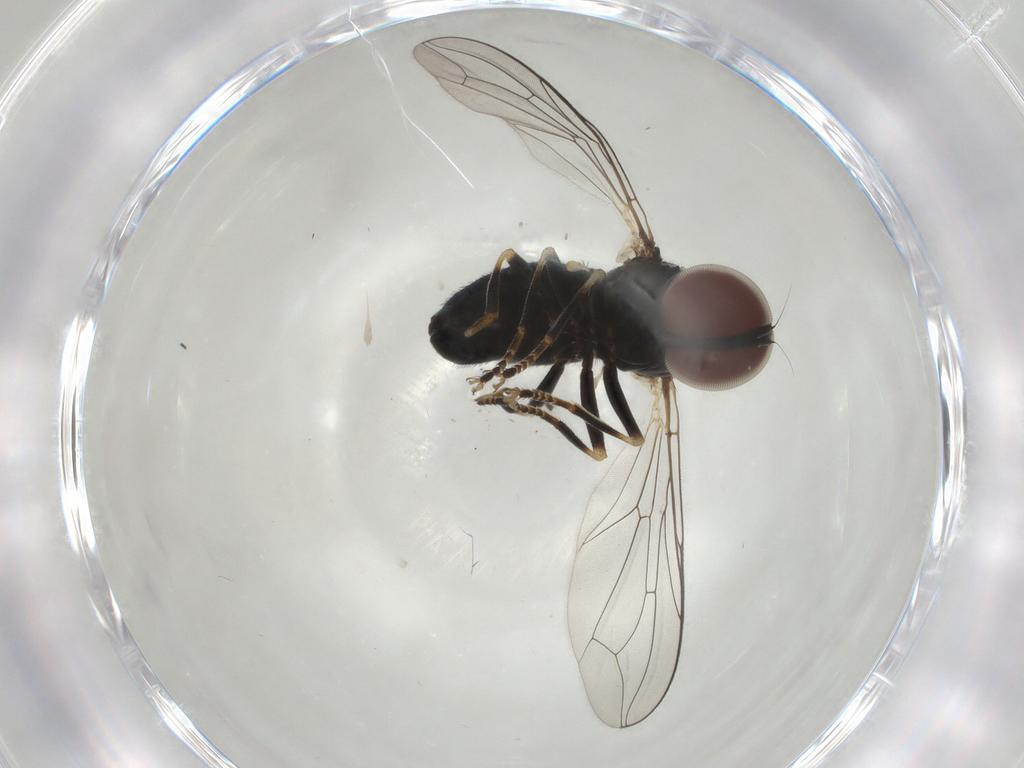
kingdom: Animalia
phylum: Arthropoda
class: Insecta
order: Diptera
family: Pipunculidae
